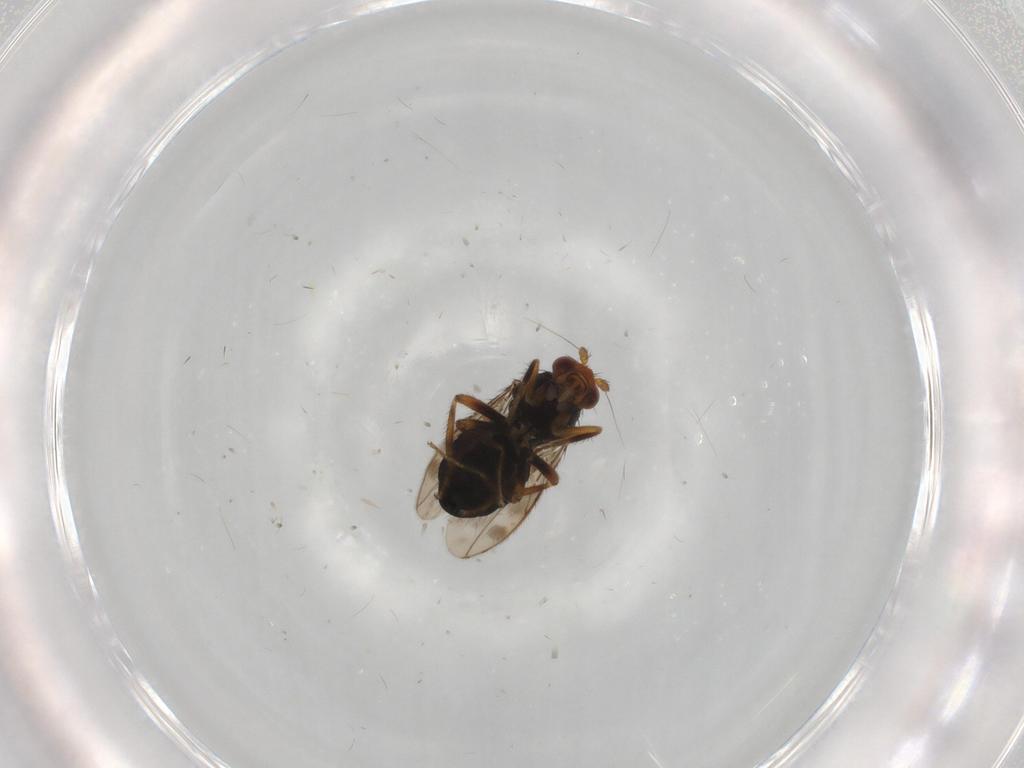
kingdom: Animalia
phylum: Arthropoda
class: Insecta
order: Diptera
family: Sphaeroceridae
